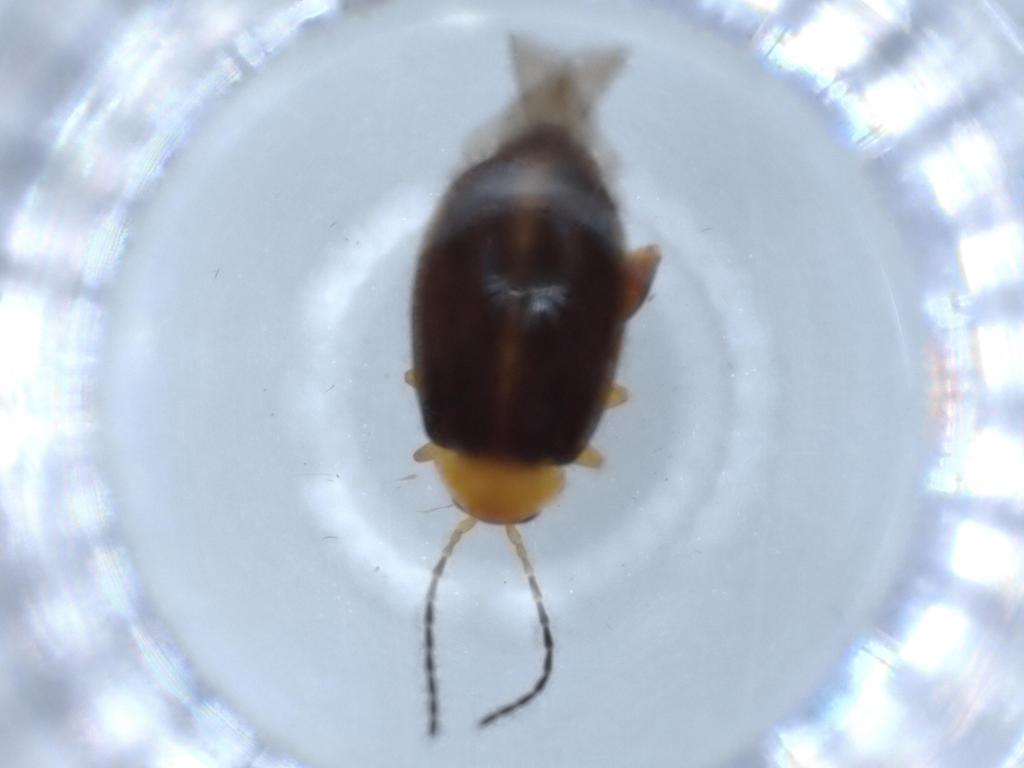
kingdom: Animalia
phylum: Arthropoda
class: Insecta
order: Coleoptera
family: Chrysomelidae
